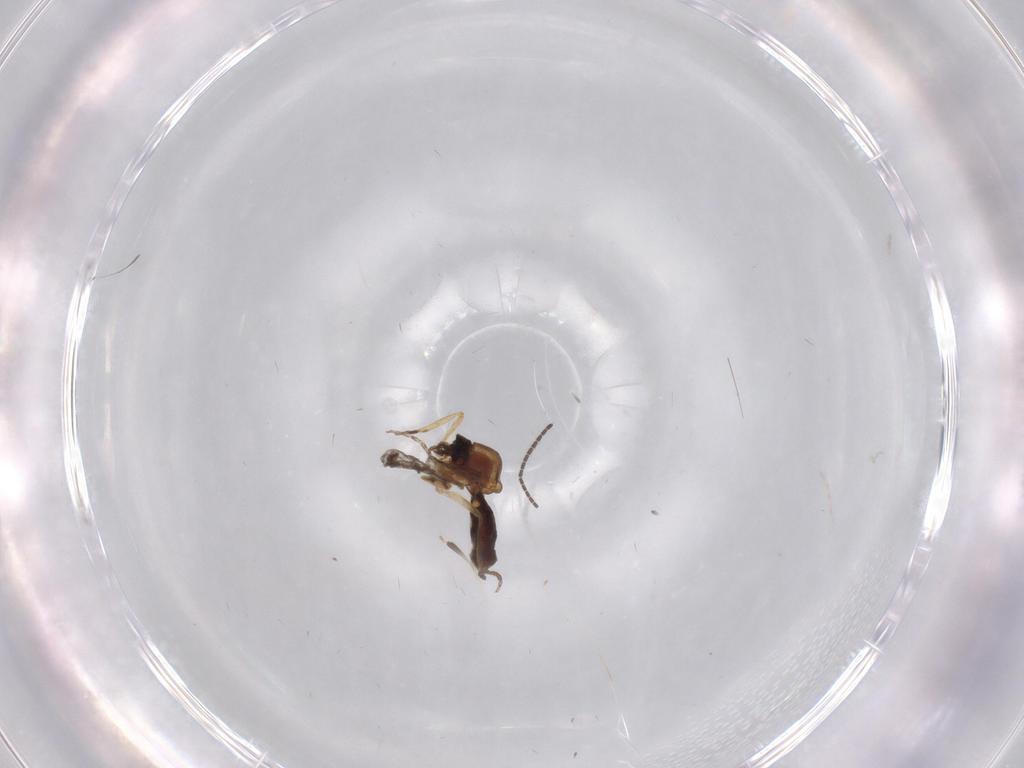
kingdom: Animalia
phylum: Arthropoda
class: Insecta
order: Diptera
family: Ceratopogonidae
